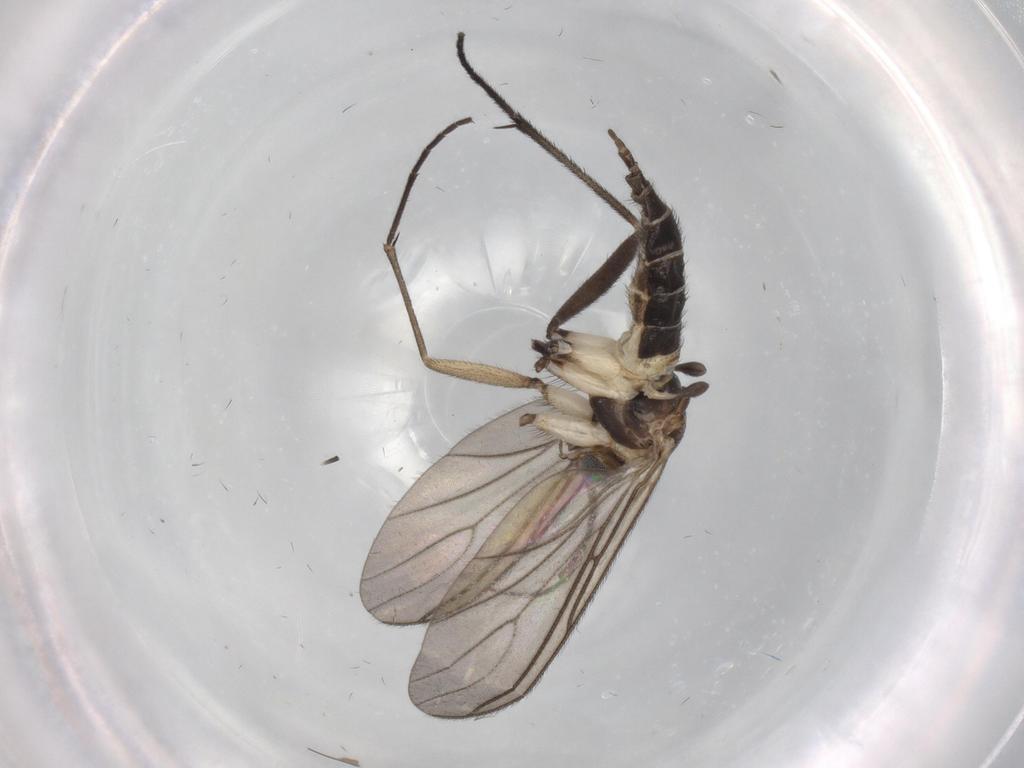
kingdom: Animalia
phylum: Arthropoda
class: Insecta
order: Diptera
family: Sciaridae
